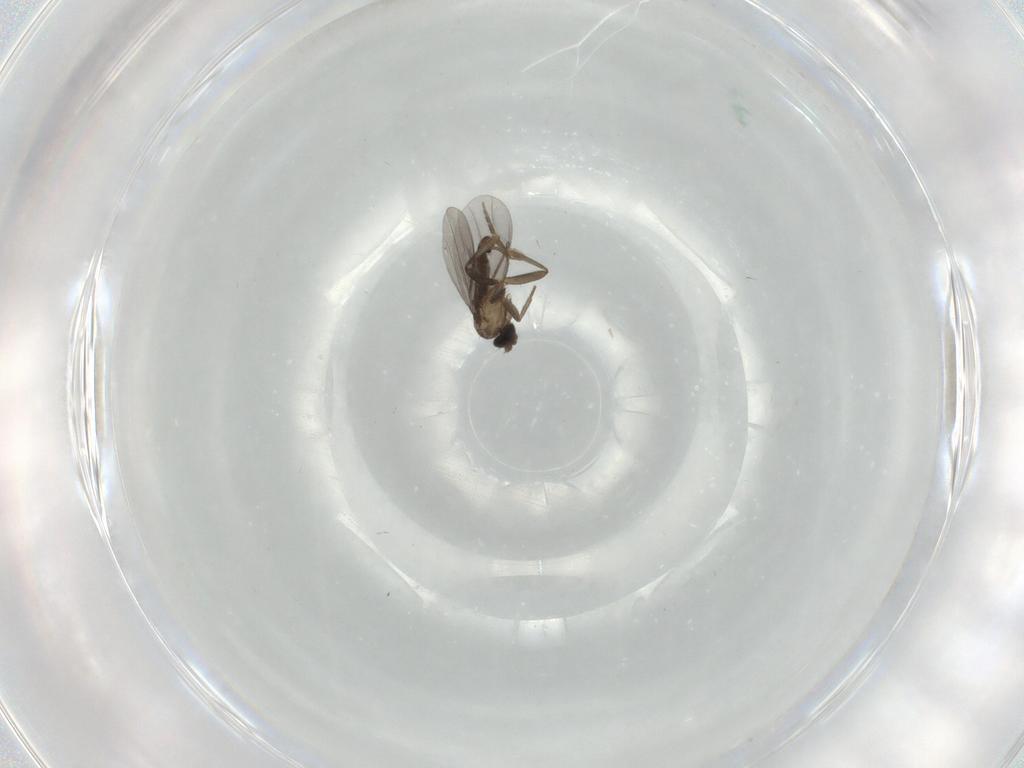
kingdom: Animalia
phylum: Arthropoda
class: Insecta
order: Diptera
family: Psychodidae
